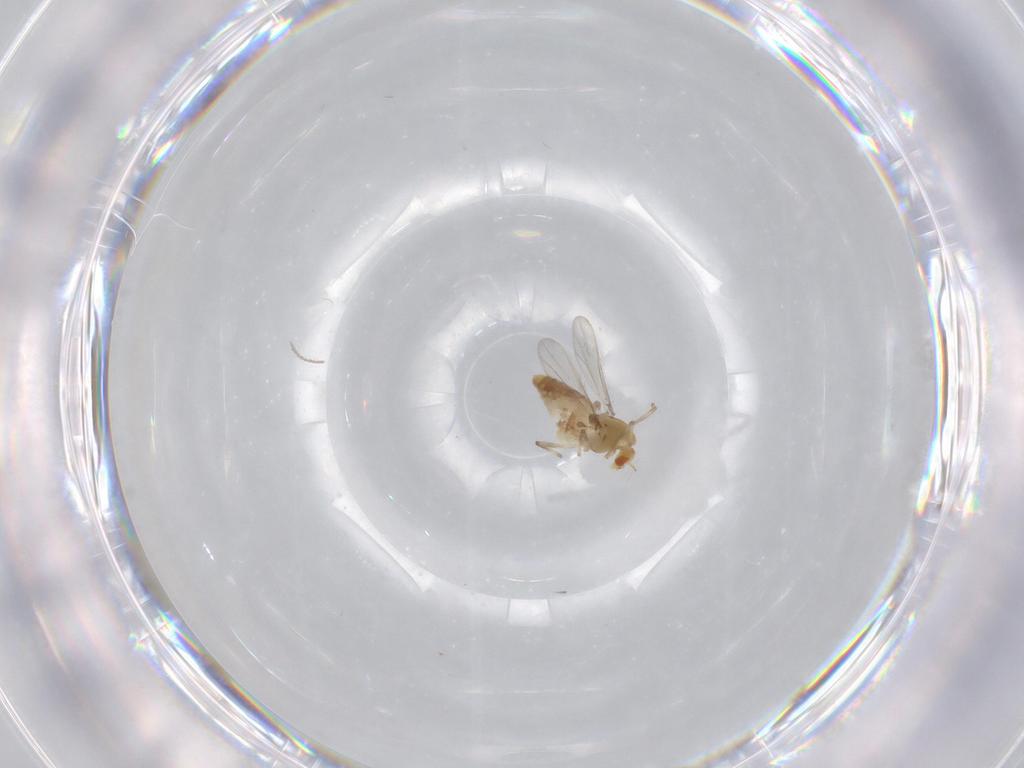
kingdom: Animalia
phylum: Arthropoda
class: Insecta
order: Diptera
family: Chironomidae
